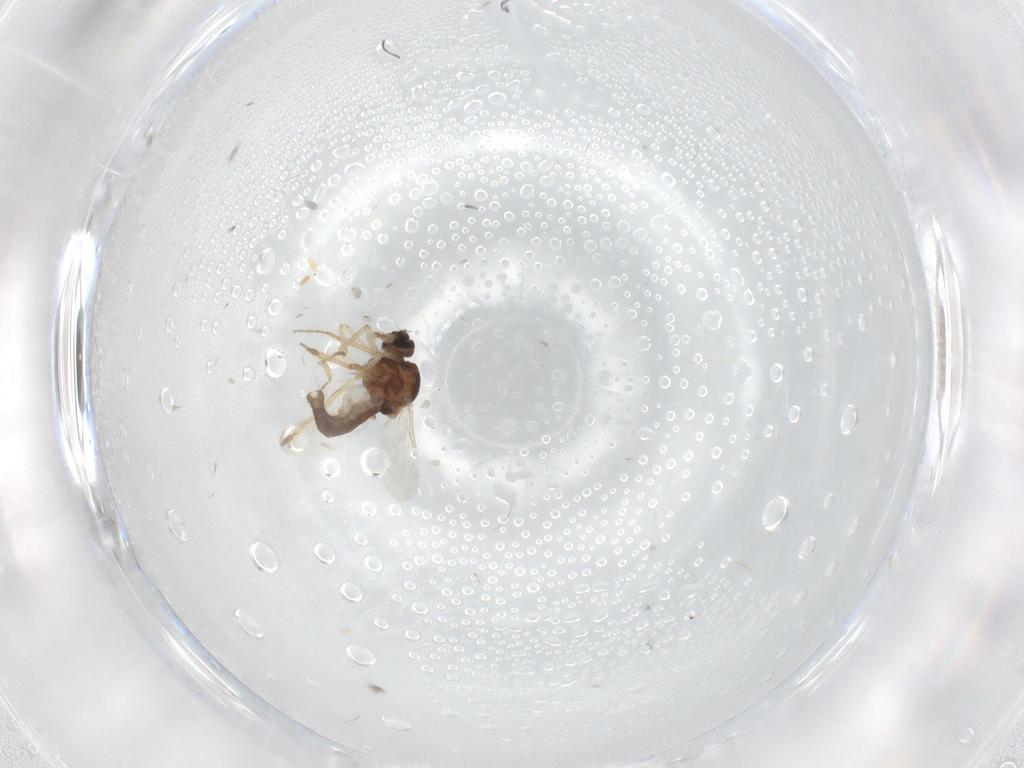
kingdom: Animalia
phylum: Arthropoda
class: Insecta
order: Diptera
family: Ceratopogonidae
